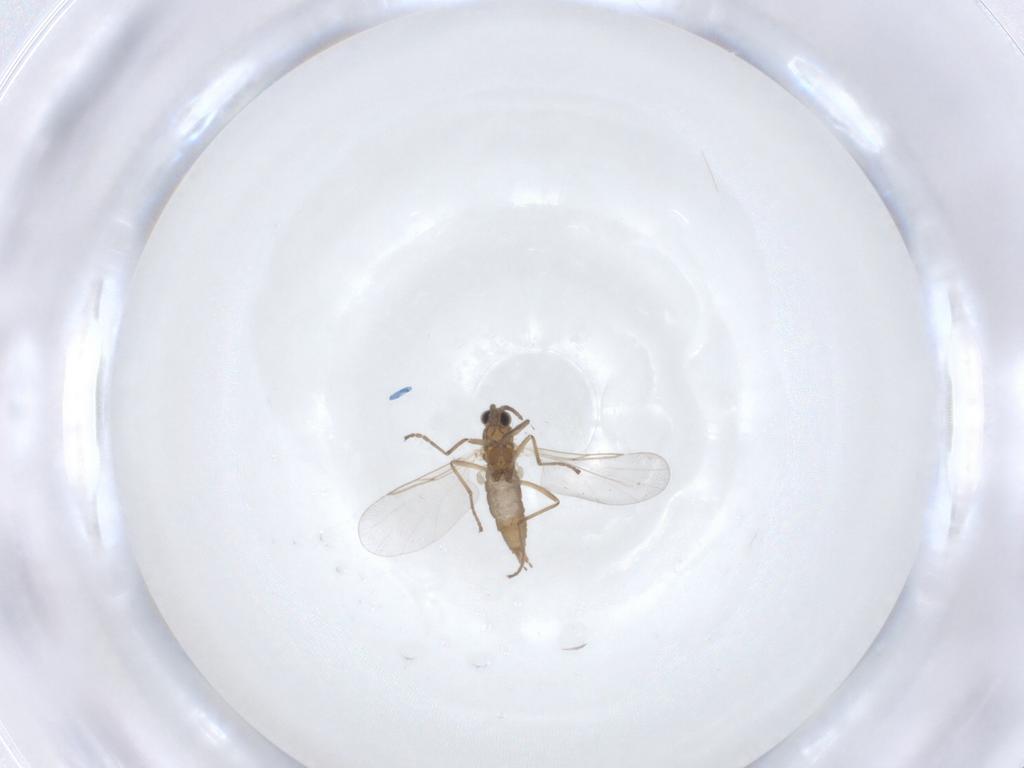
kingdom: Animalia
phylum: Arthropoda
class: Insecta
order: Diptera
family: Cecidomyiidae
